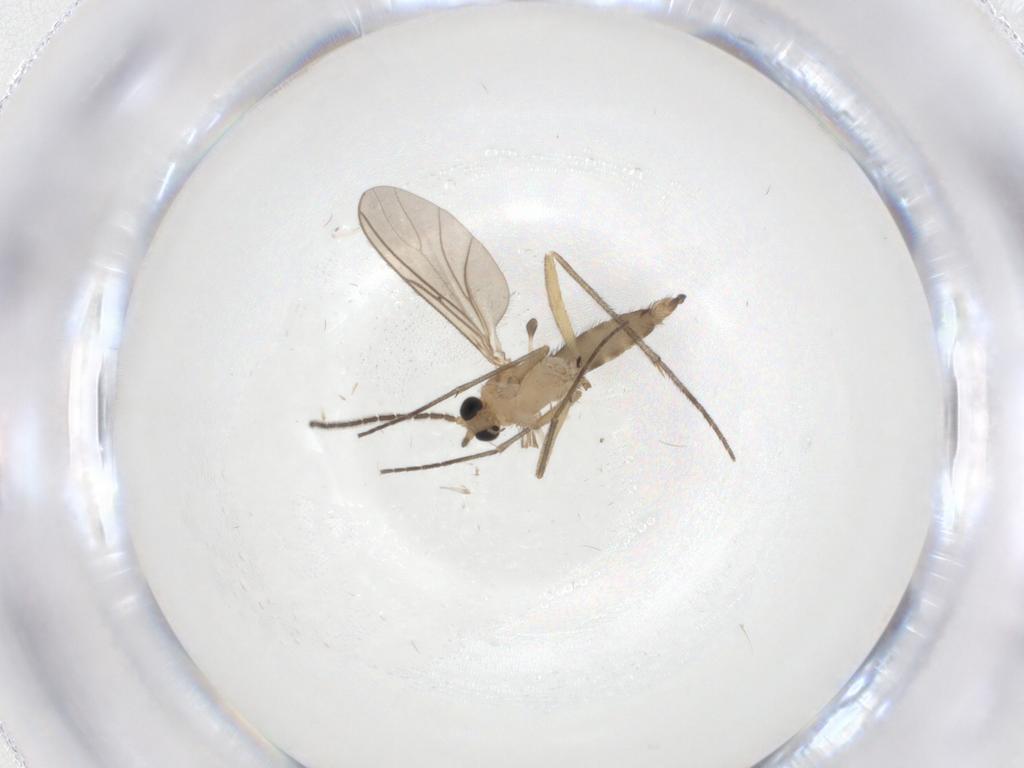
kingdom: Animalia
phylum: Arthropoda
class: Insecta
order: Diptera
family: Sciaridae
